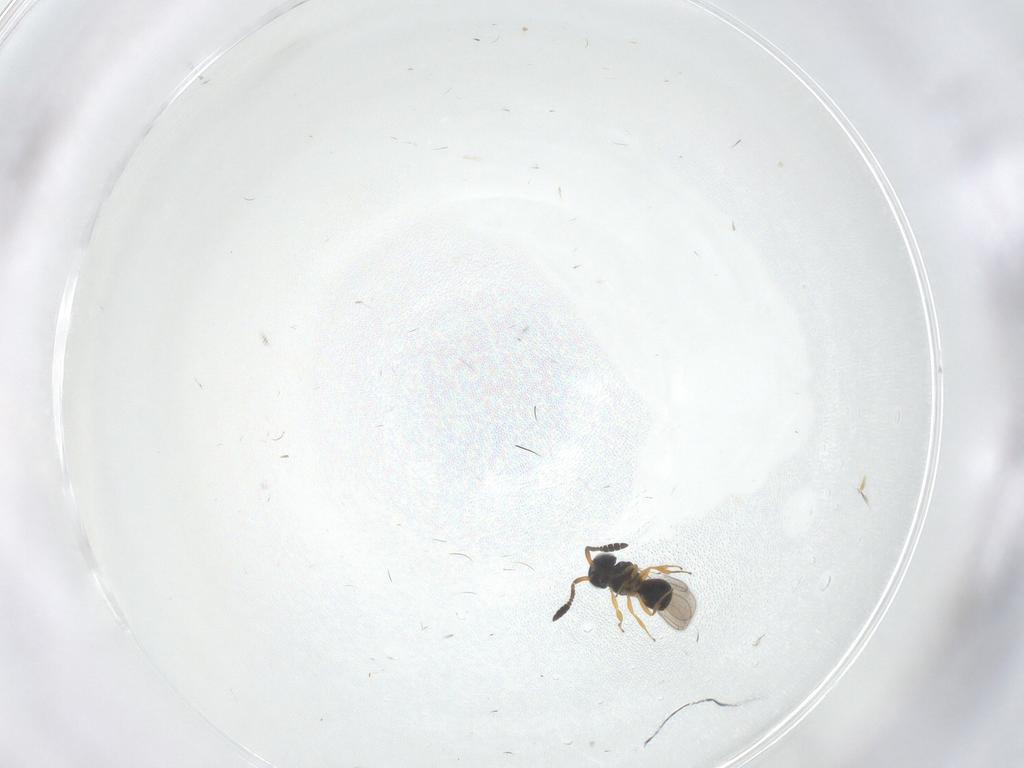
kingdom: Animalia
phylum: Arthropoda
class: Insecta
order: Hymenoptera
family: Scelionidae
